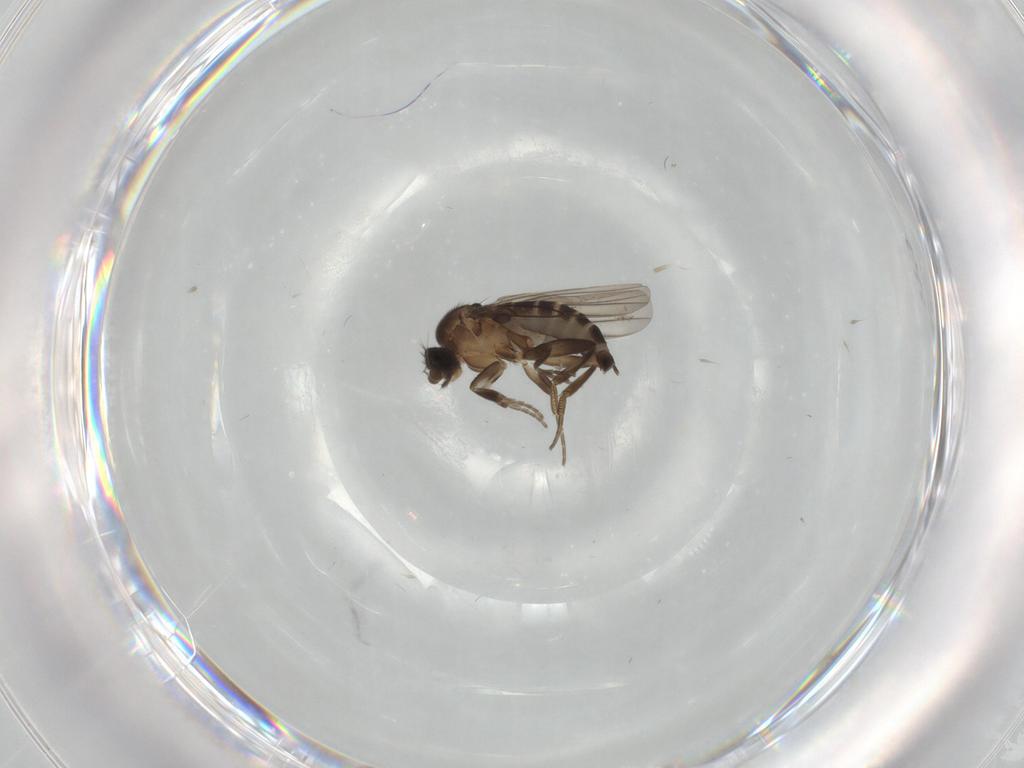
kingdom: Animalia
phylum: Arthropoda
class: Insecta
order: Diptera
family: Phoridae
